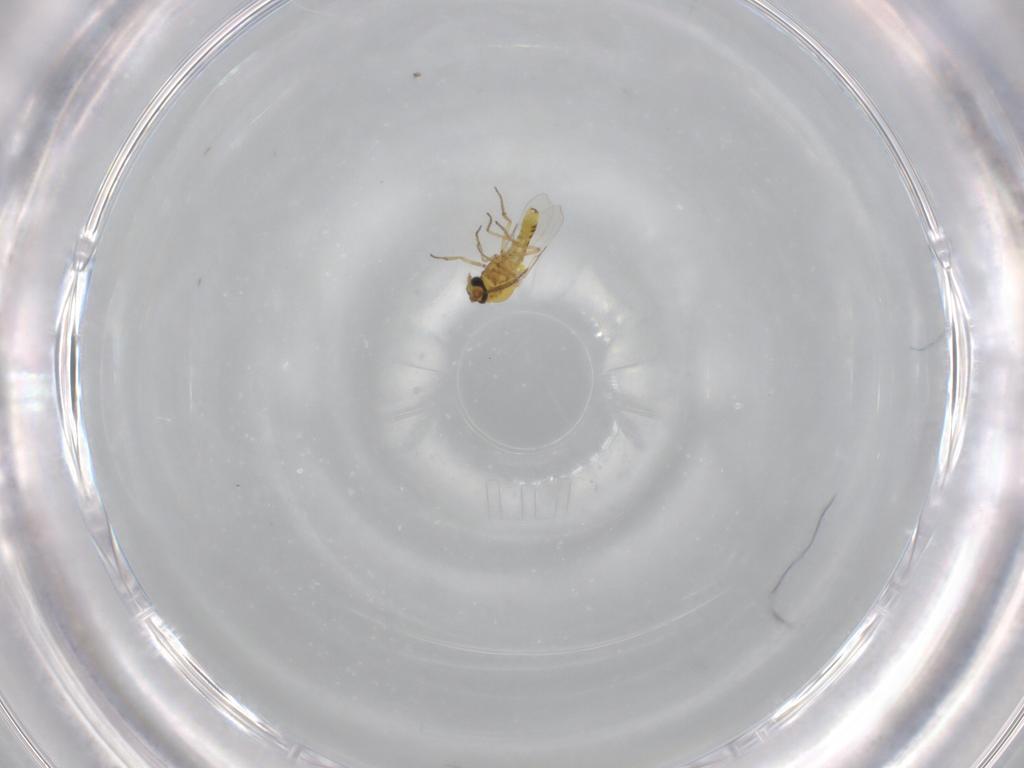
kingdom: Animalia
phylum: Arthropoda
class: Insecta
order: Diptera
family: Ceratopogonidae
